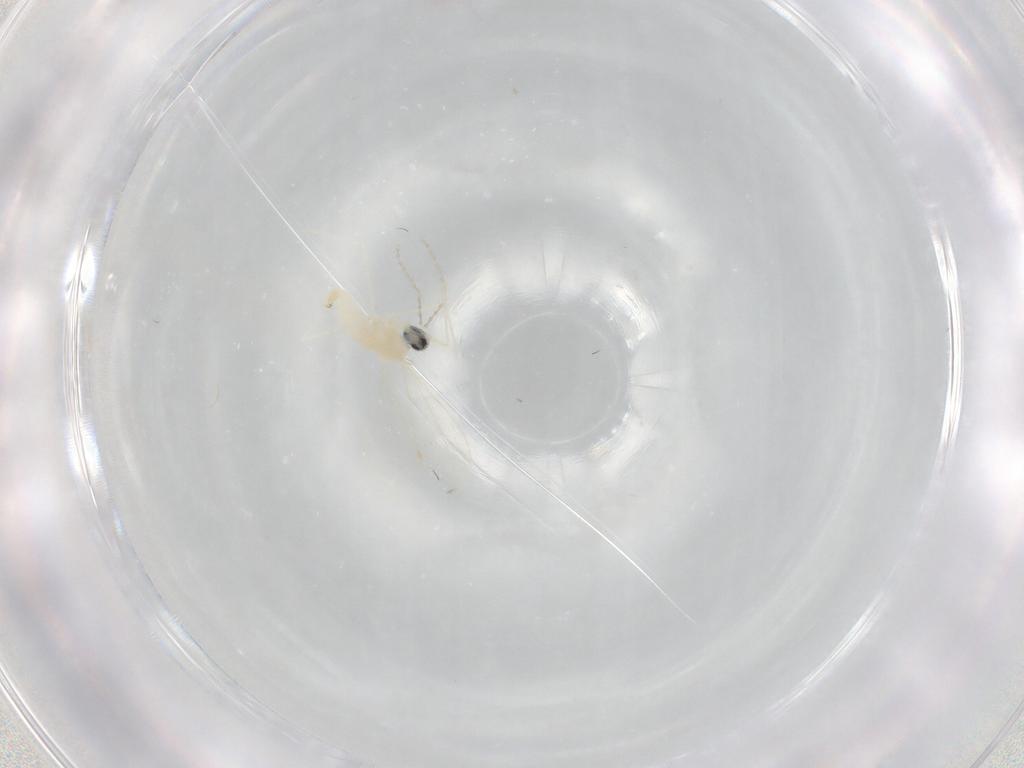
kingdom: Animalia
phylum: Arthropoda
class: Insecta
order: Diptera
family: Cecidomyiidae
